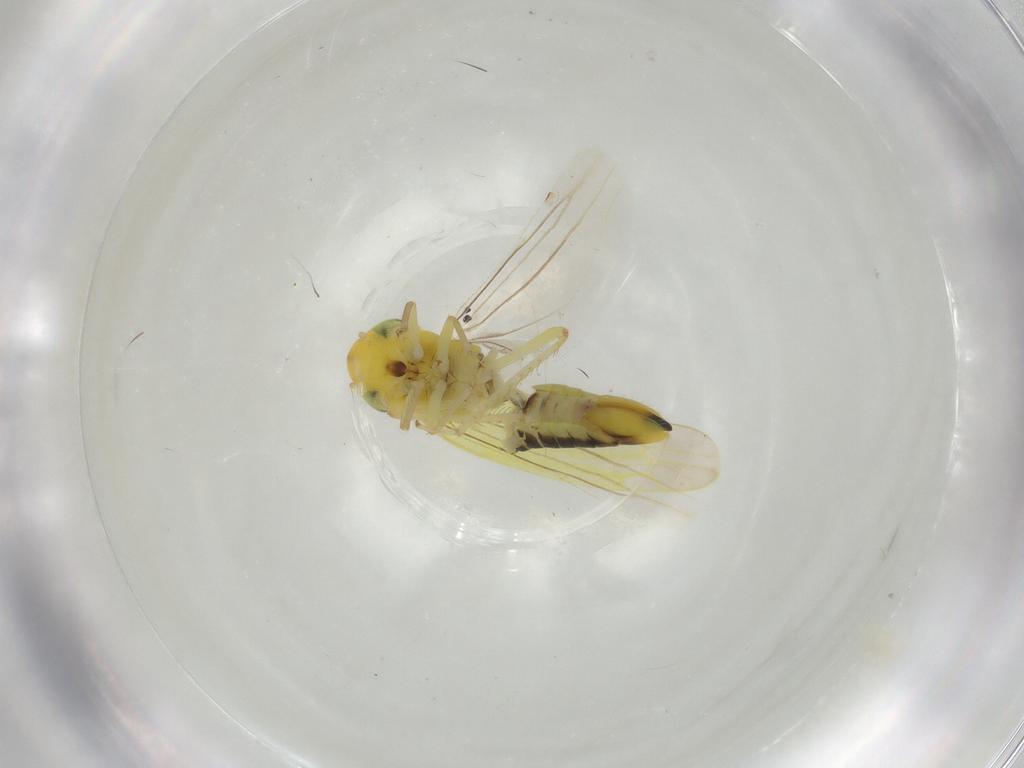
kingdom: Animalia
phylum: Arthropoda
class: Insecta
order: Hemiptera
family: Cicadellidae
